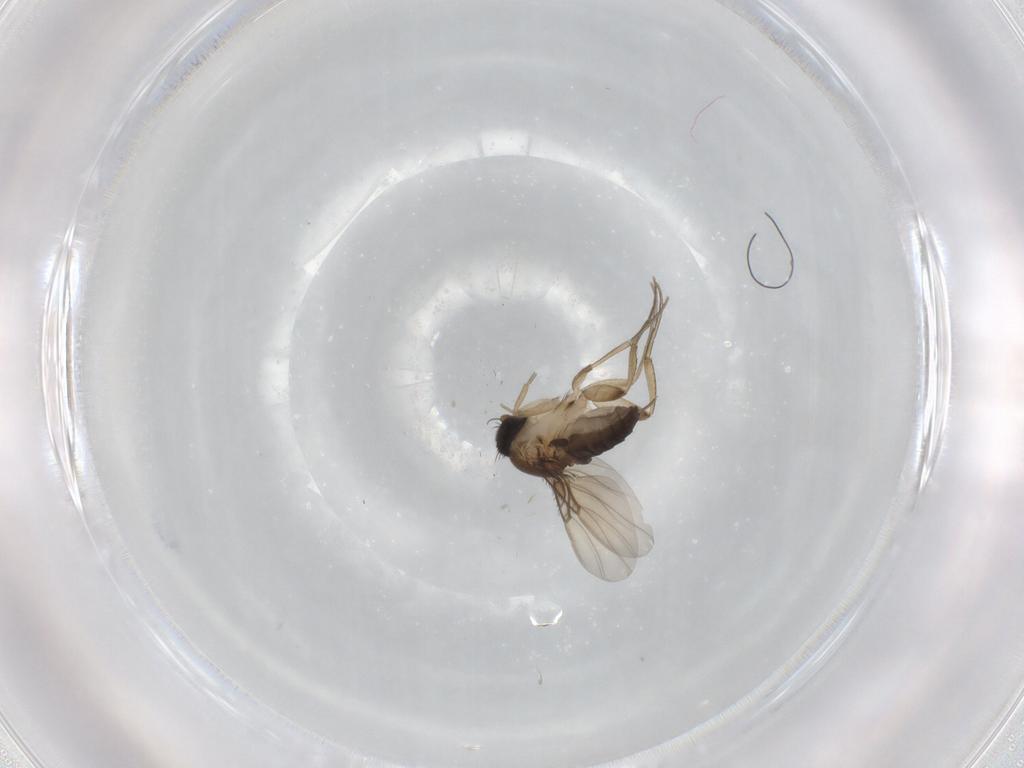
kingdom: Animalia
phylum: Arthropoda
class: Insecta
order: Diptera
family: Phoridae
